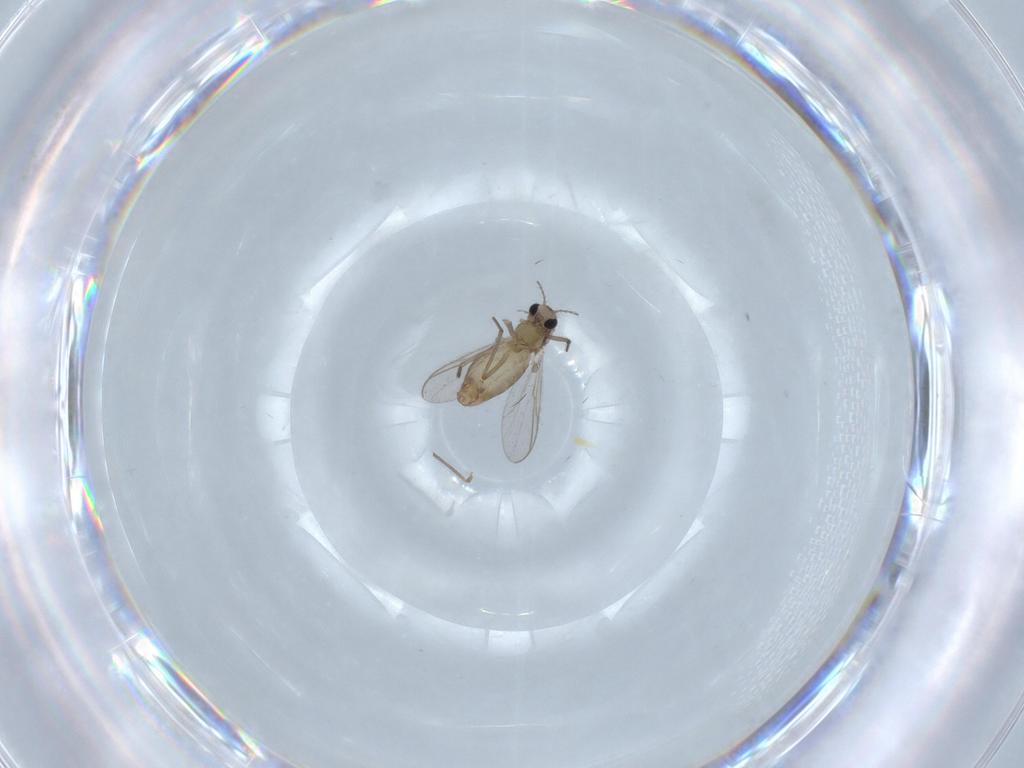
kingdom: Animalia
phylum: Arthropoda
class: Insecta
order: Diptera
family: Chironomidae
